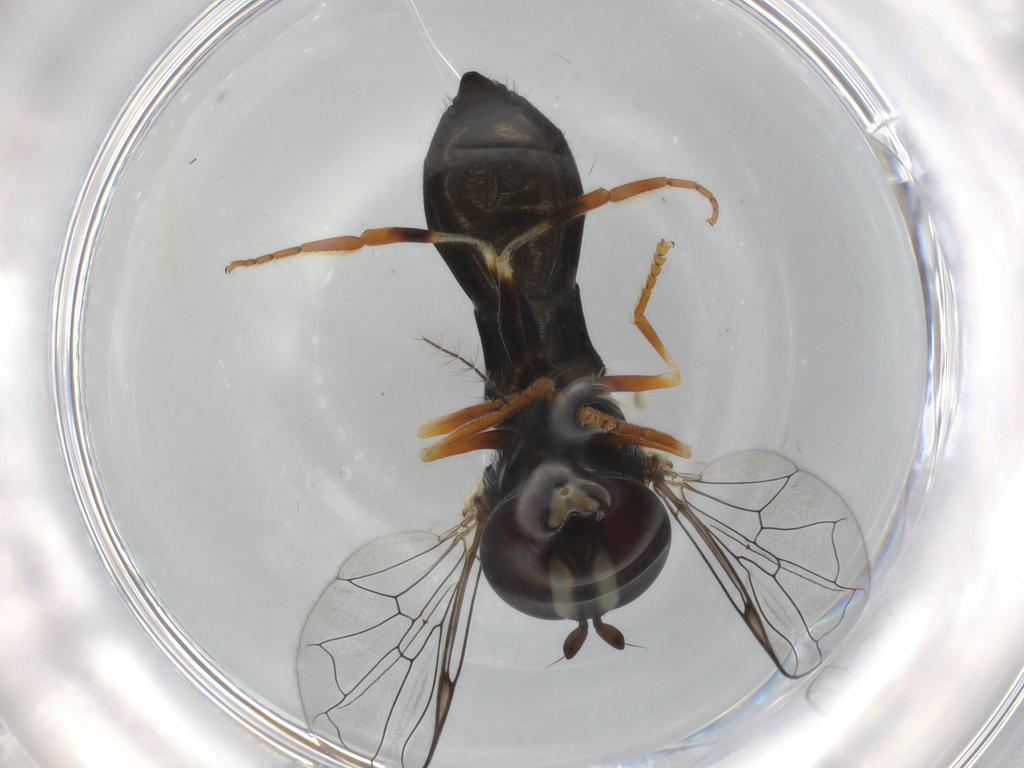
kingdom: Animalia
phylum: Arthropoda
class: Insecta
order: Diptera
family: Syrphidae
